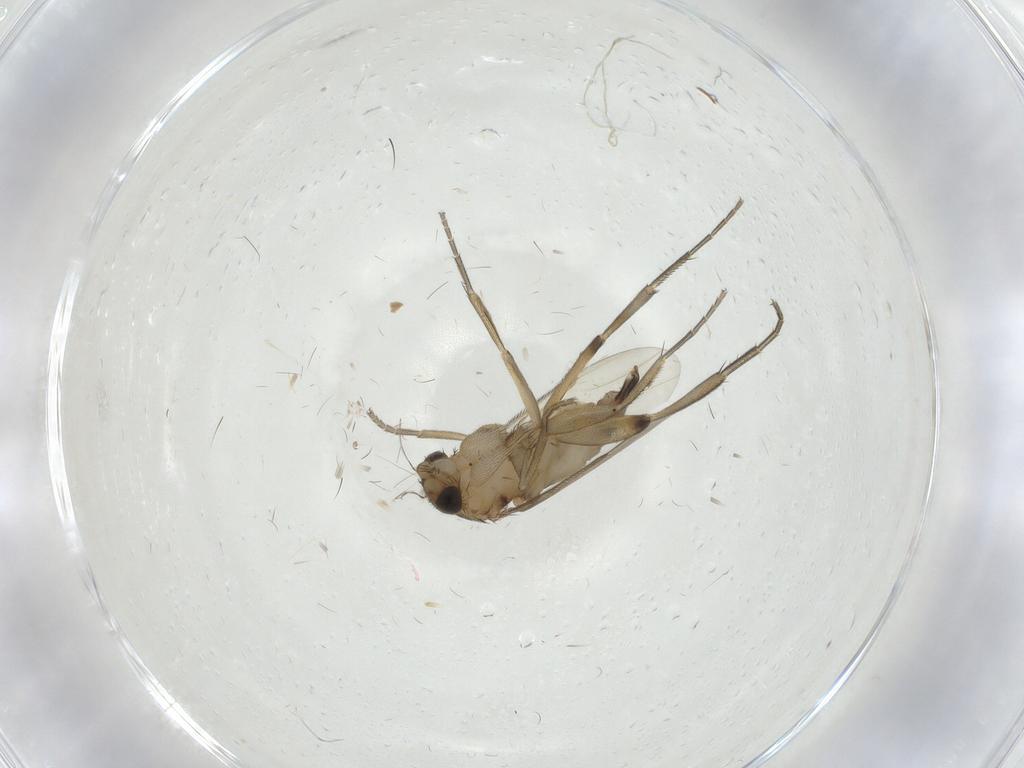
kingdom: Animalia
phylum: Arthropoda
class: Insecta
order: Diptera
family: Phoridae
